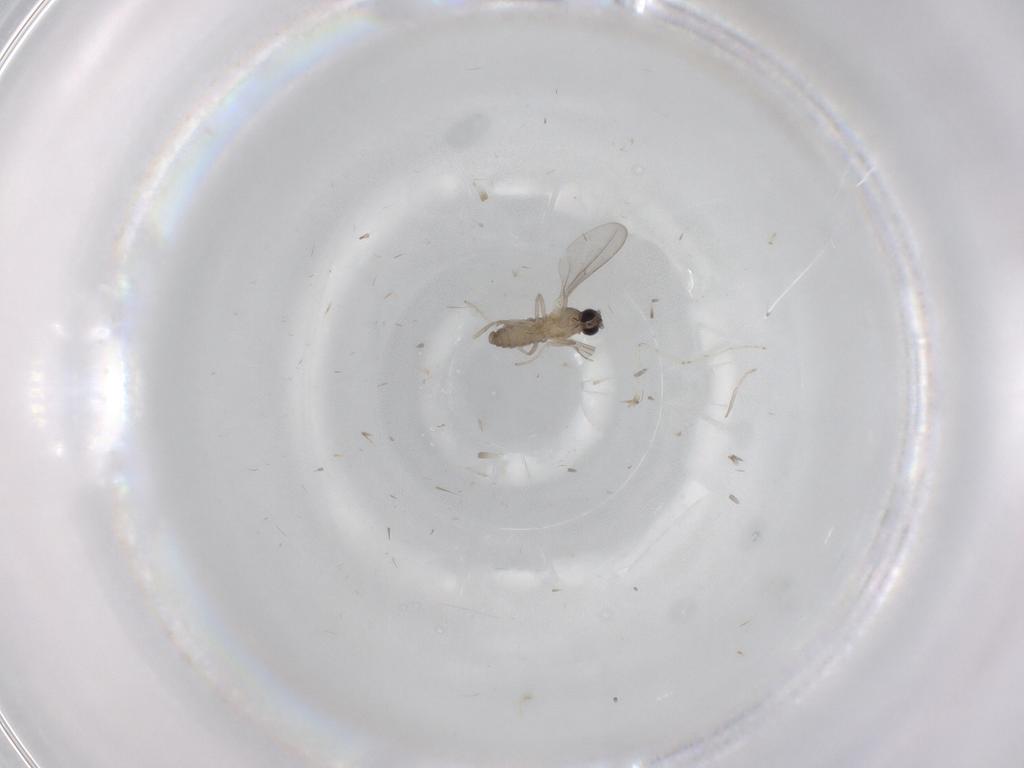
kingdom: Animalia
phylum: Arthropoda
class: Insecta
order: Diptera
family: Cecidomyiidae
